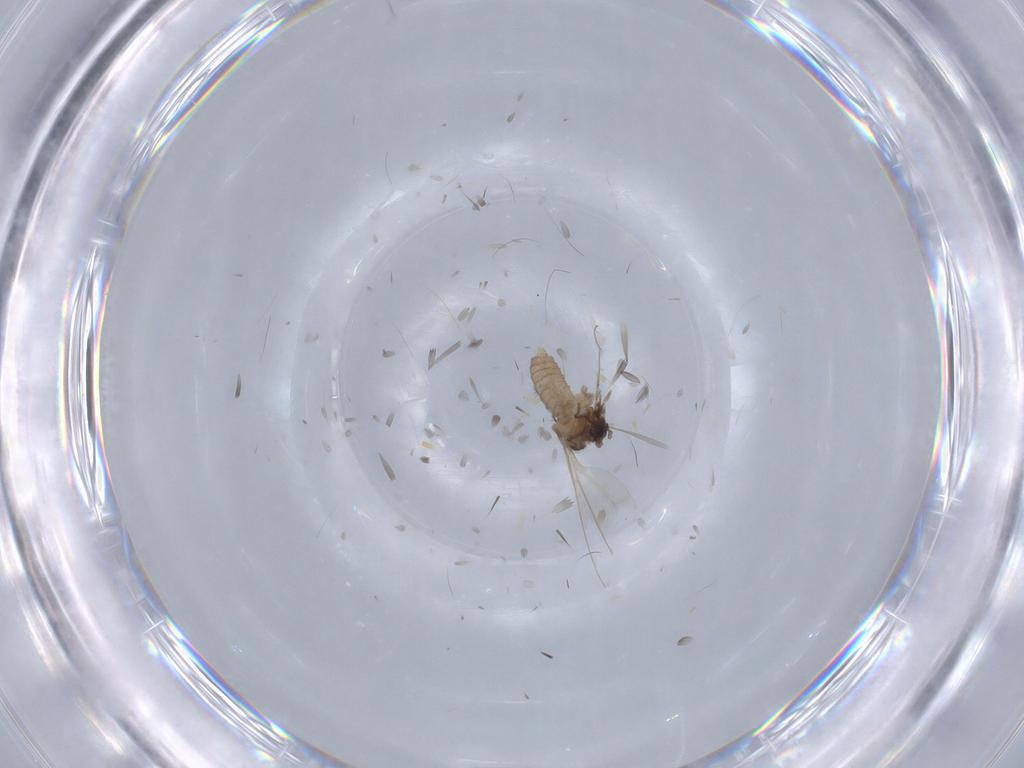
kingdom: Animalia
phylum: Arthropoda
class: Insecta
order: Diptera
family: Cecidomyiidae
